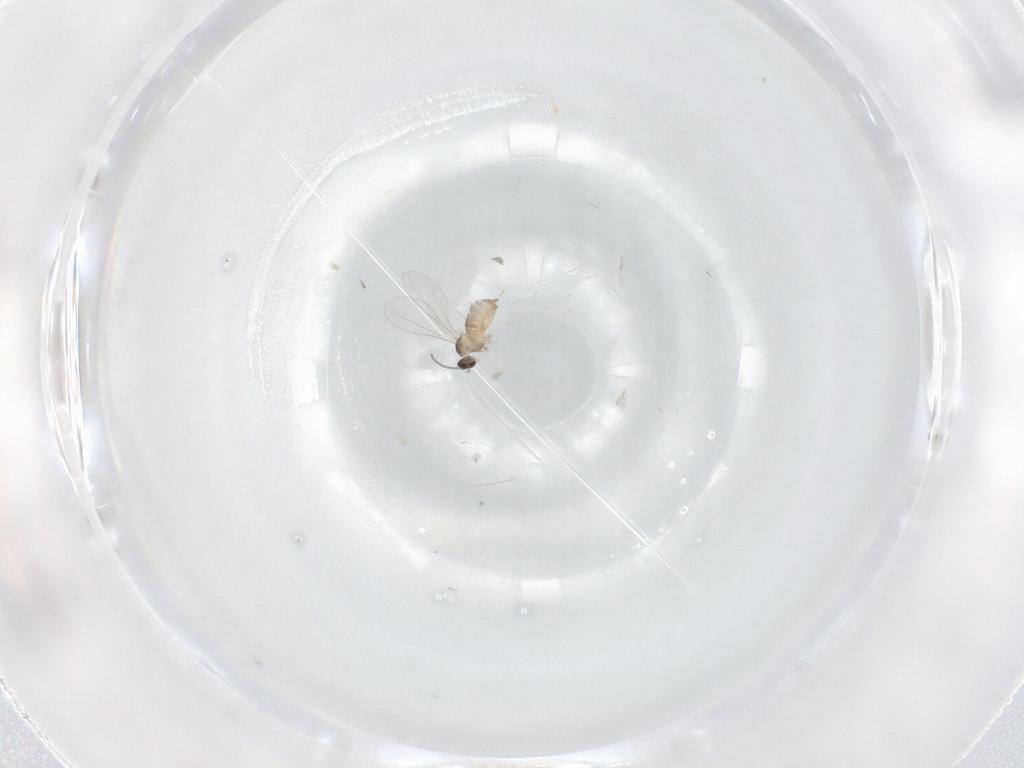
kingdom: Animalia
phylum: Arthropoda
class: Insecta
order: Diptera
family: Cecidomyiidae
